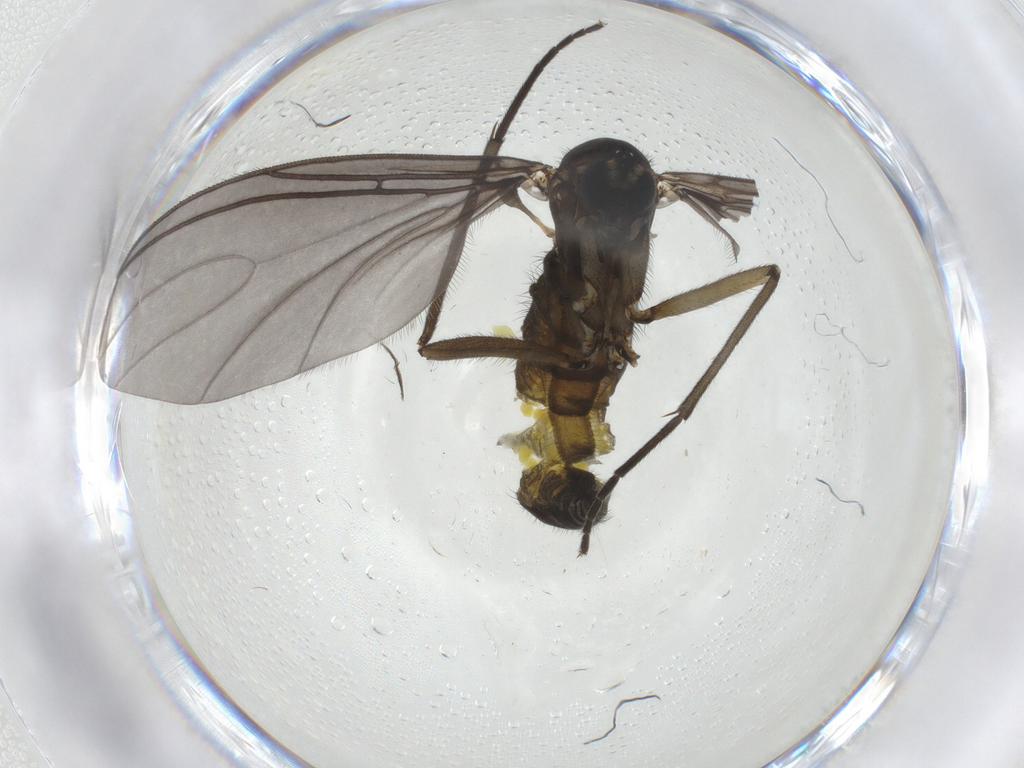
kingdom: Animalia
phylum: Arthropoda
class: Insecta
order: Diptera
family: Sciaridae
